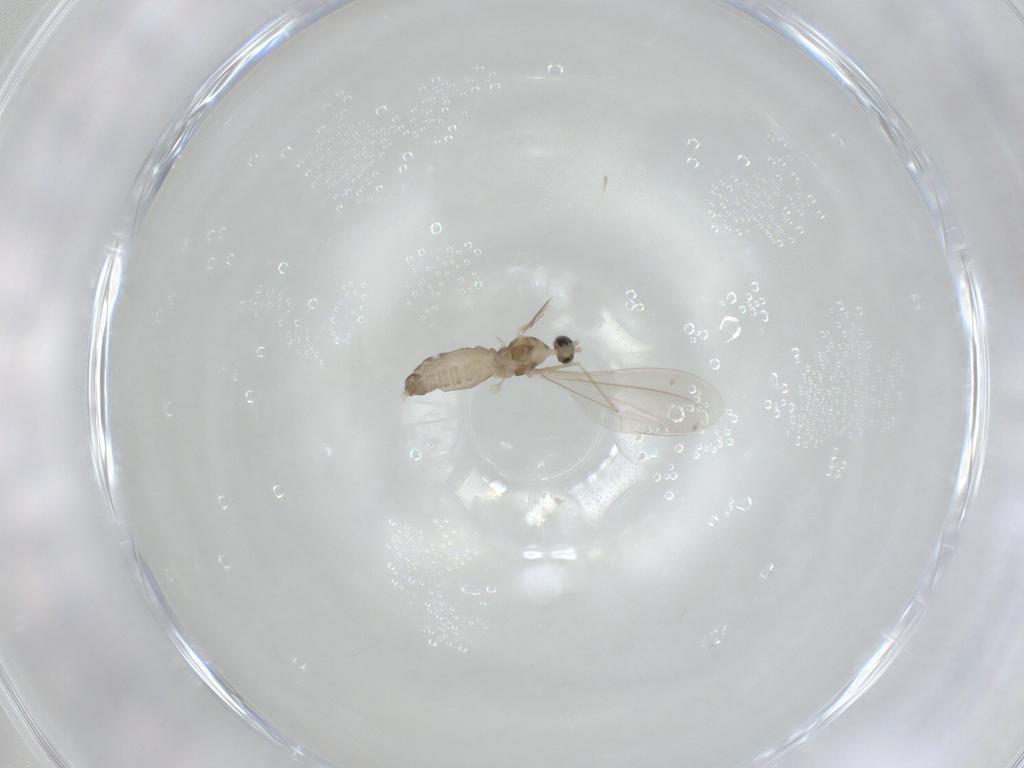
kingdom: Animalia
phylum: Arthropoda
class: Insecta
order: Diptera
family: Cecidomyiidae
